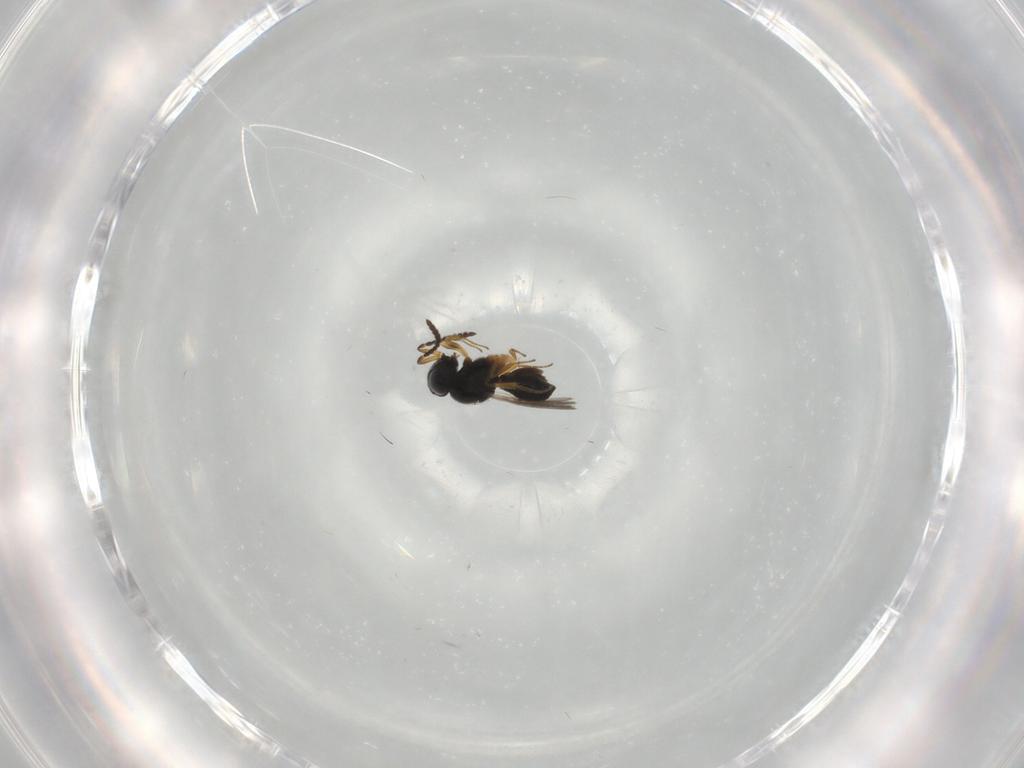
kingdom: Animalia
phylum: Arthropoda
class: Insecta
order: Hymenoptera
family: Scelionidae
